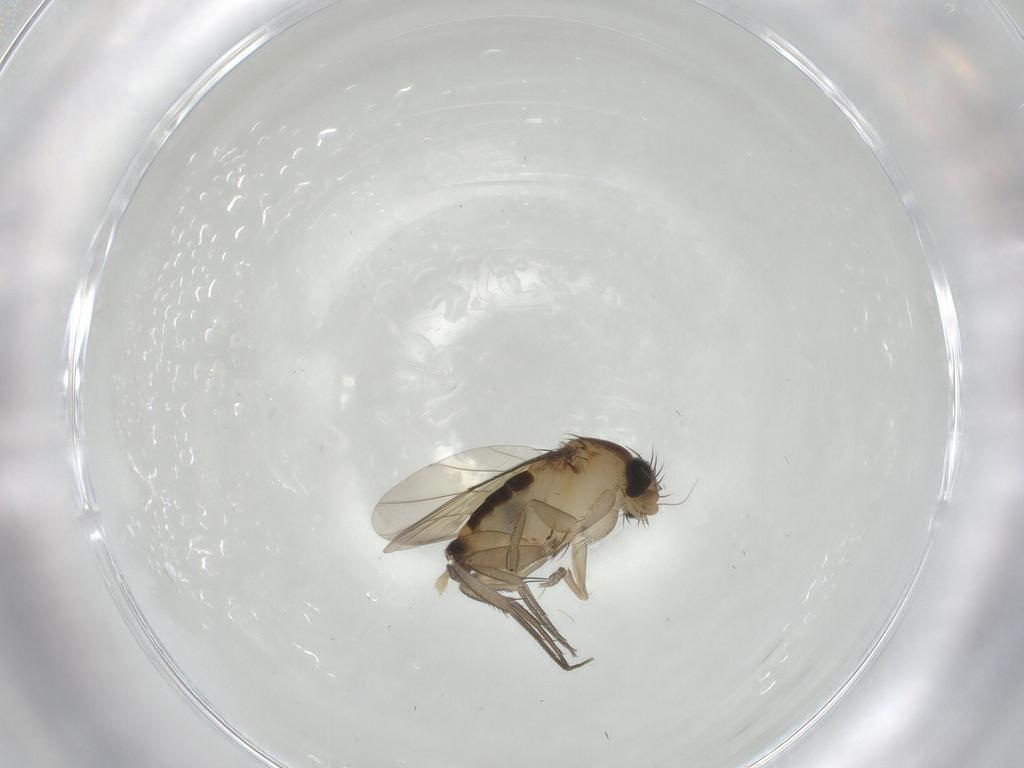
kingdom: Animalia
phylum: Arthropoda
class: Insecta
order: Diptera
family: Phoridae
